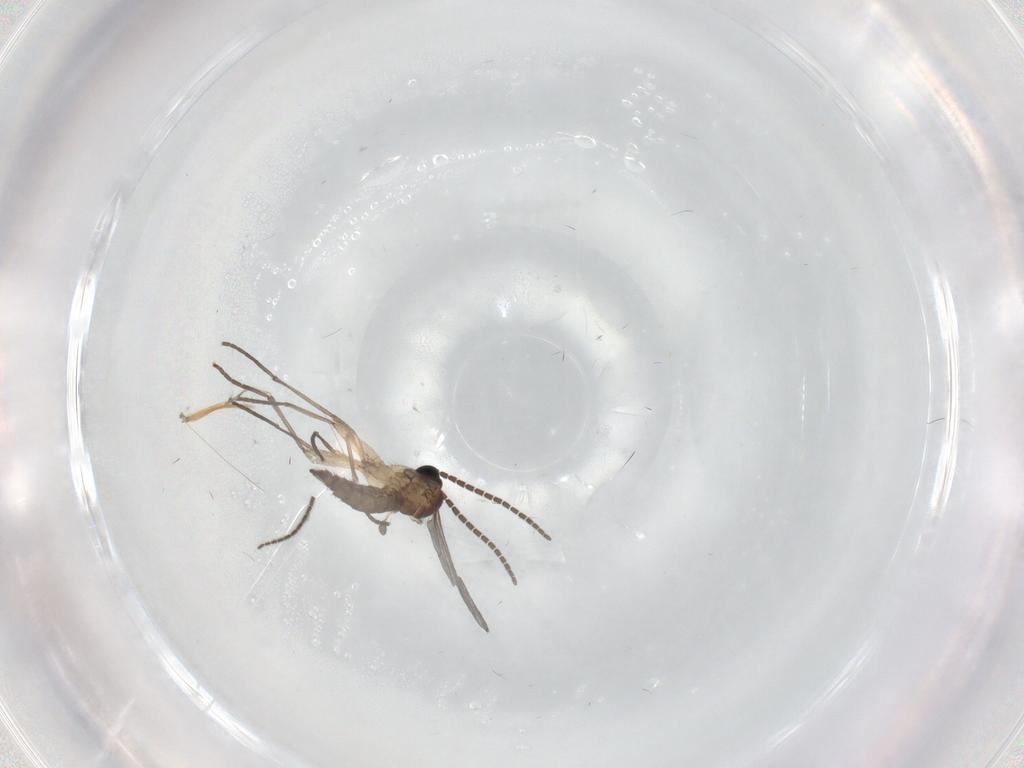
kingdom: Animalia
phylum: Arthropoda
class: Insecta
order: Diptera
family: Sciaridae
